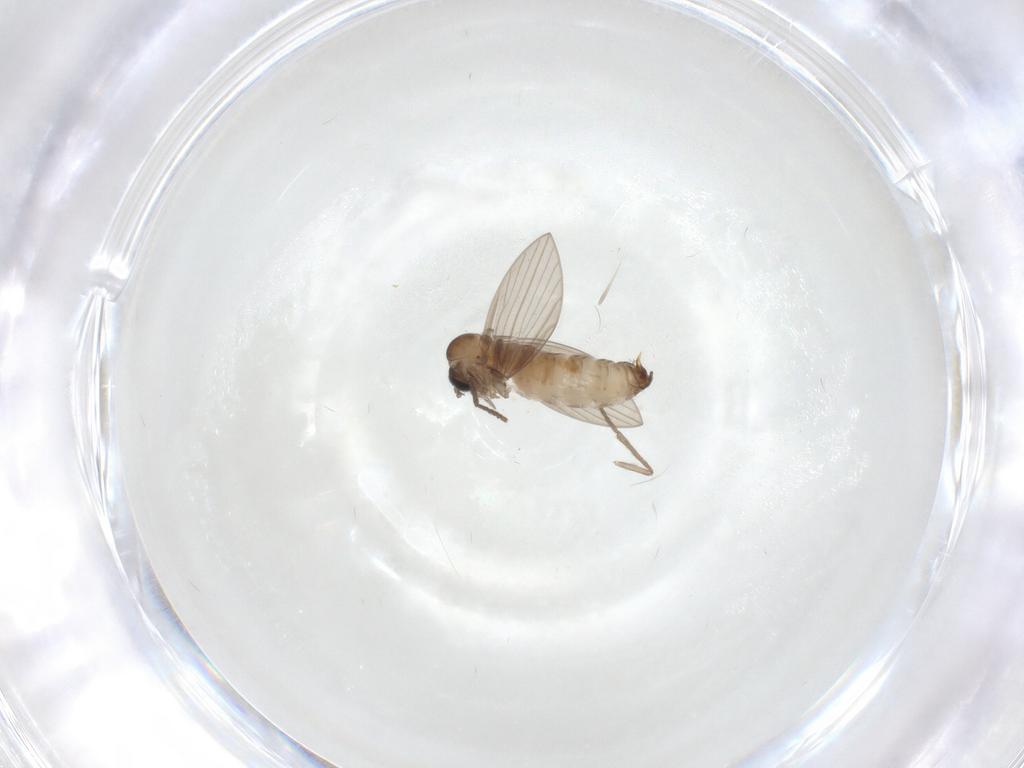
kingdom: Animalia
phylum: Arthropoda
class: Insecta
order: Diptera
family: Psychodidae
